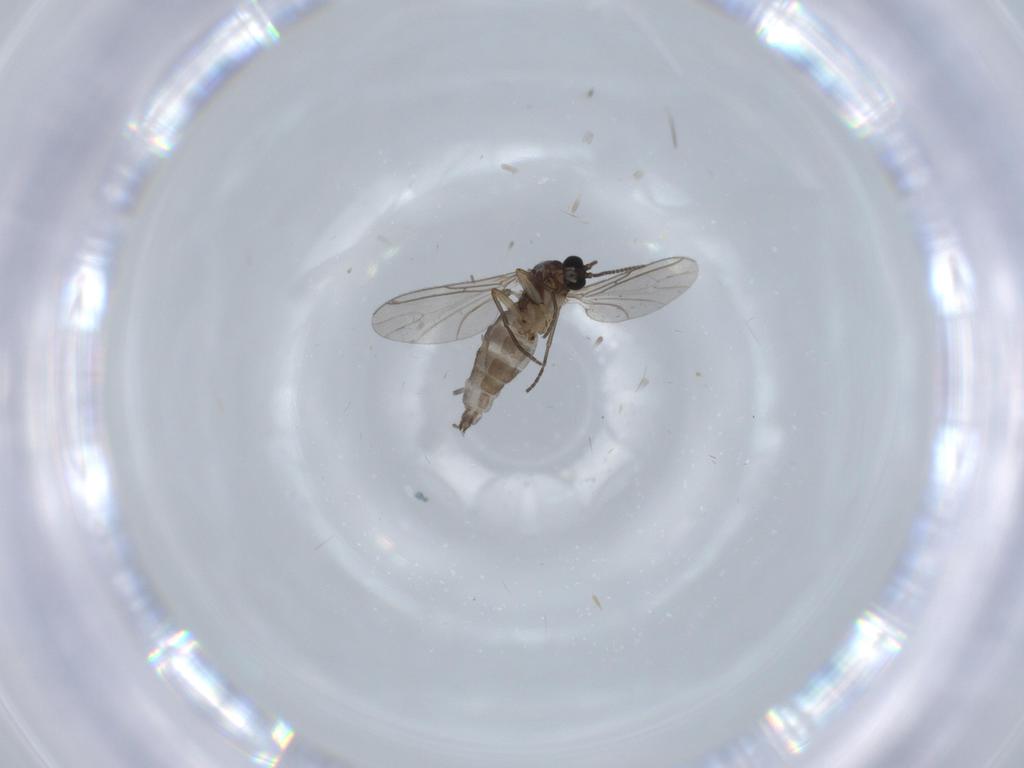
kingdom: Animalia
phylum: Arthropoda
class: Insecta
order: Diptera
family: Sciaridae
